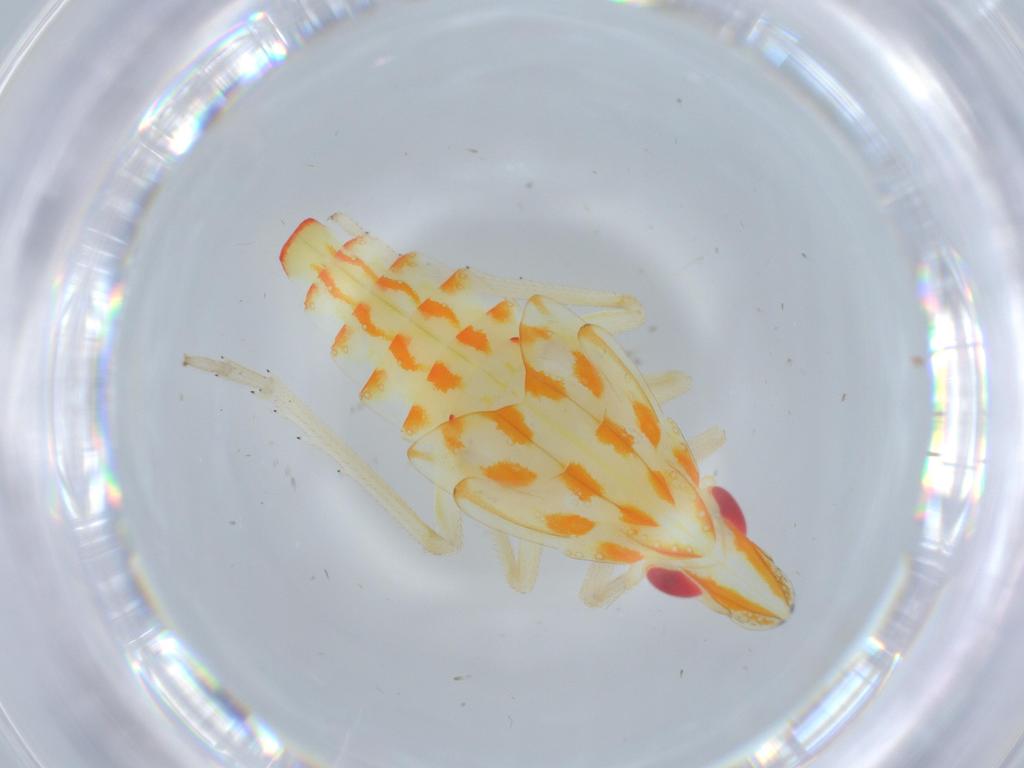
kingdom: Animalia
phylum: Arthropoda
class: Insecta
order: Hemiptera
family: Tropiduchidae
